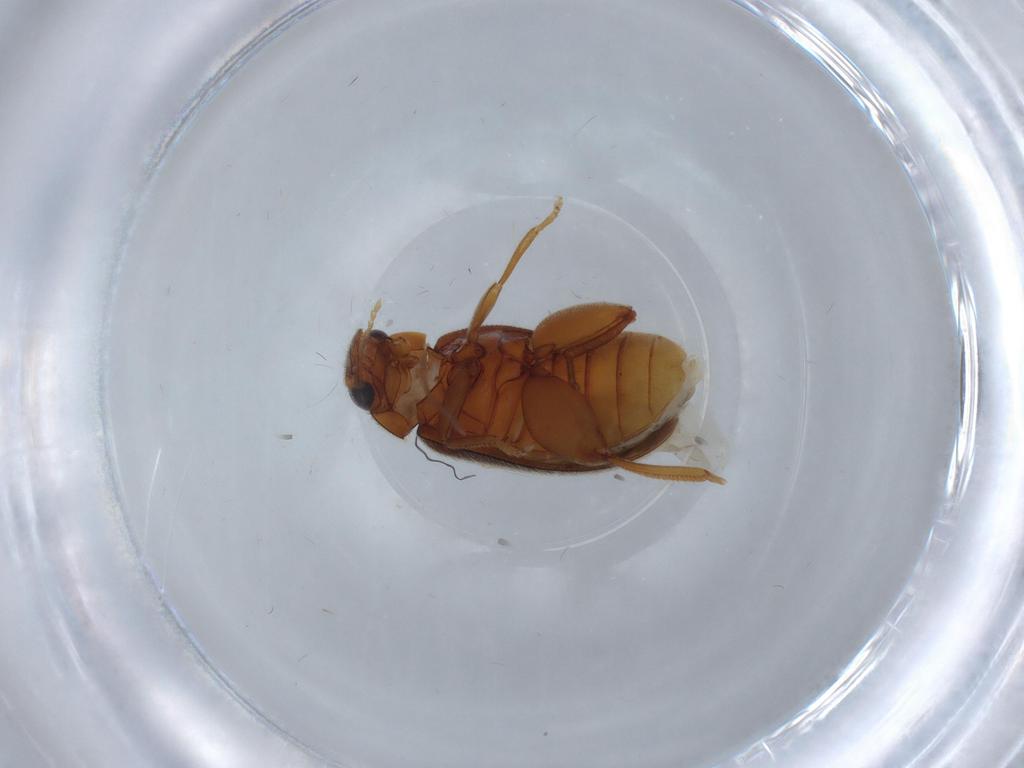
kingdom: Animalia
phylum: Arthropoda
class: Insecta
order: Coleoptera
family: Scirtidae
